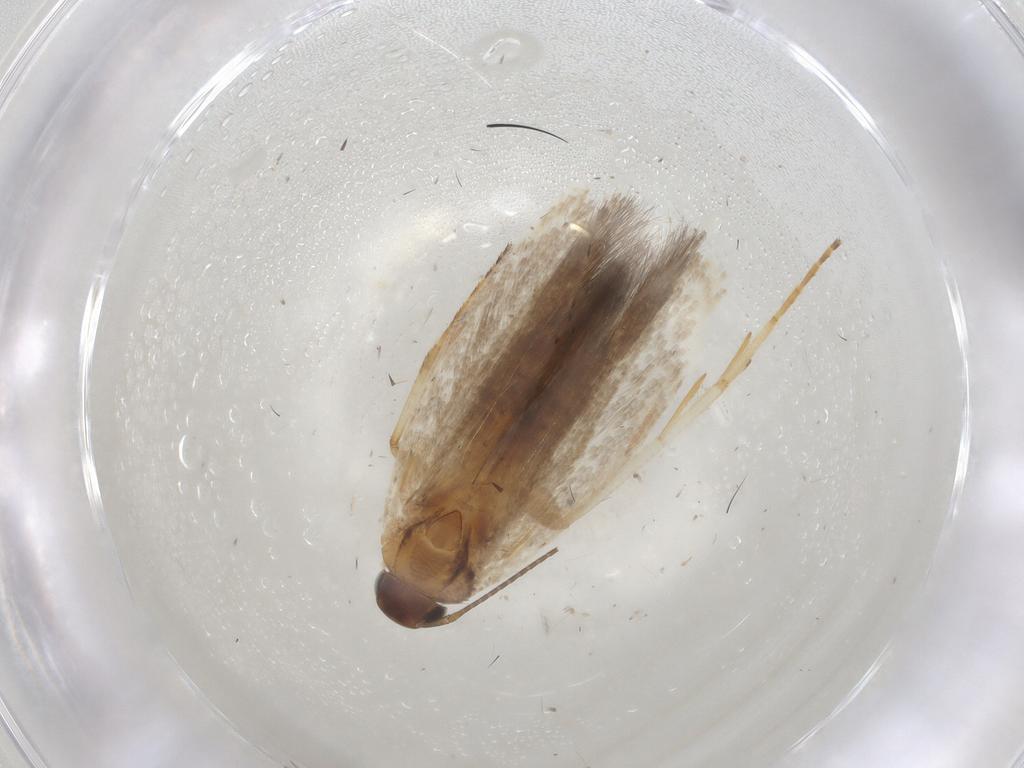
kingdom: Animalia
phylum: Arthropoda
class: Insecta
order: Lepidoptera
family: Gelechiidae
